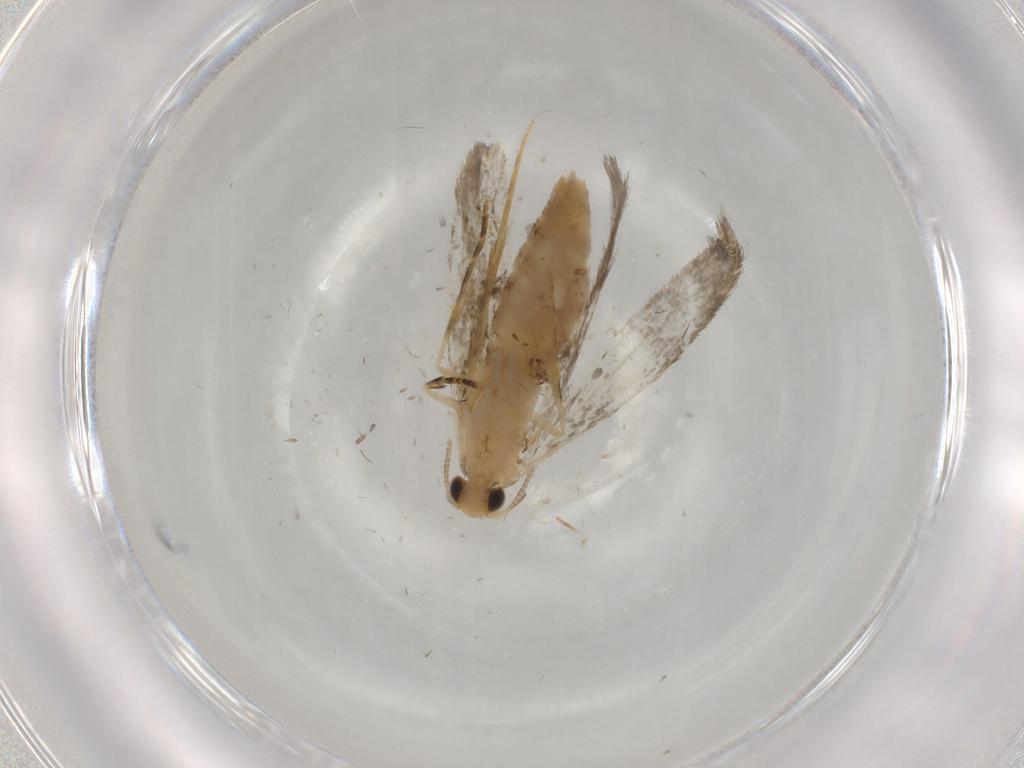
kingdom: Animalia
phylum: Arthropoda
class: Insecta
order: Lepidoptera
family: Tineidae
